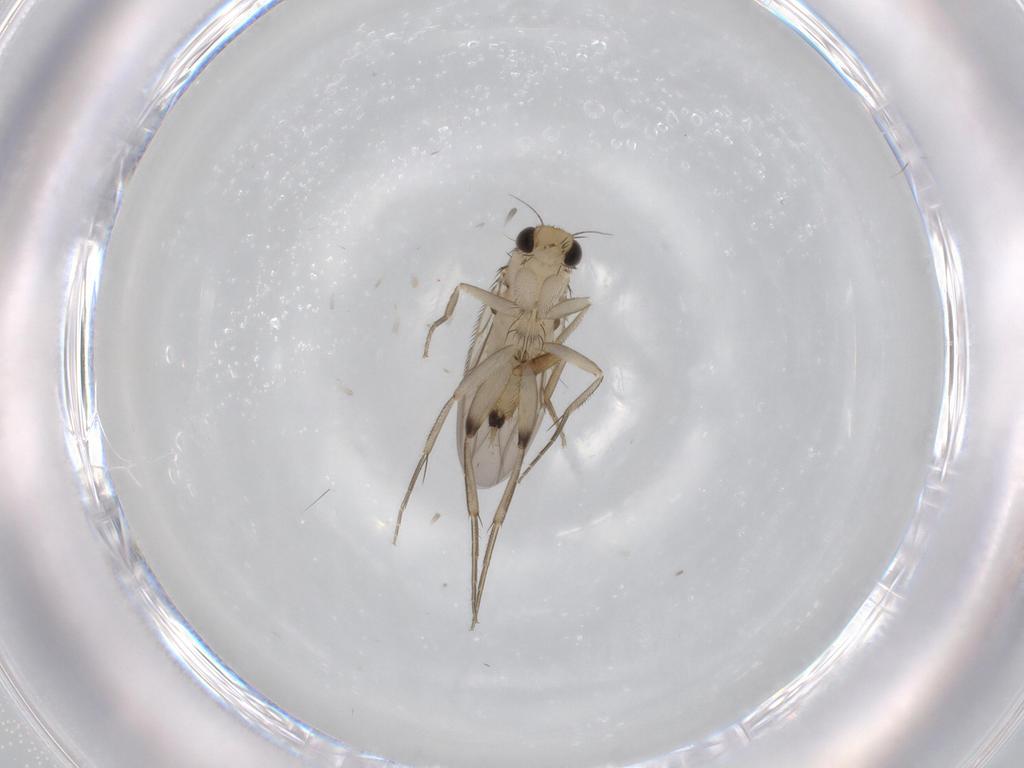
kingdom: Animalia
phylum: Arthropoda
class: Insecta
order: Diptera
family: Phoridae
